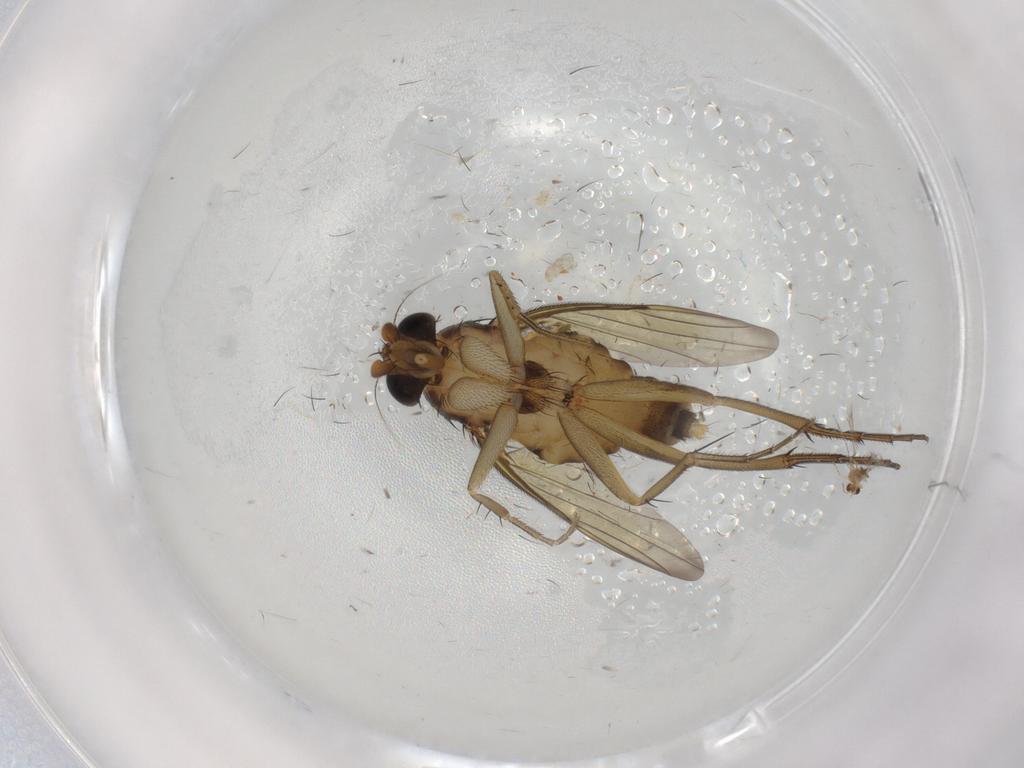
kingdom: Animalia
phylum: Arthropoda
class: Insecta
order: Diptera
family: Phoridae
